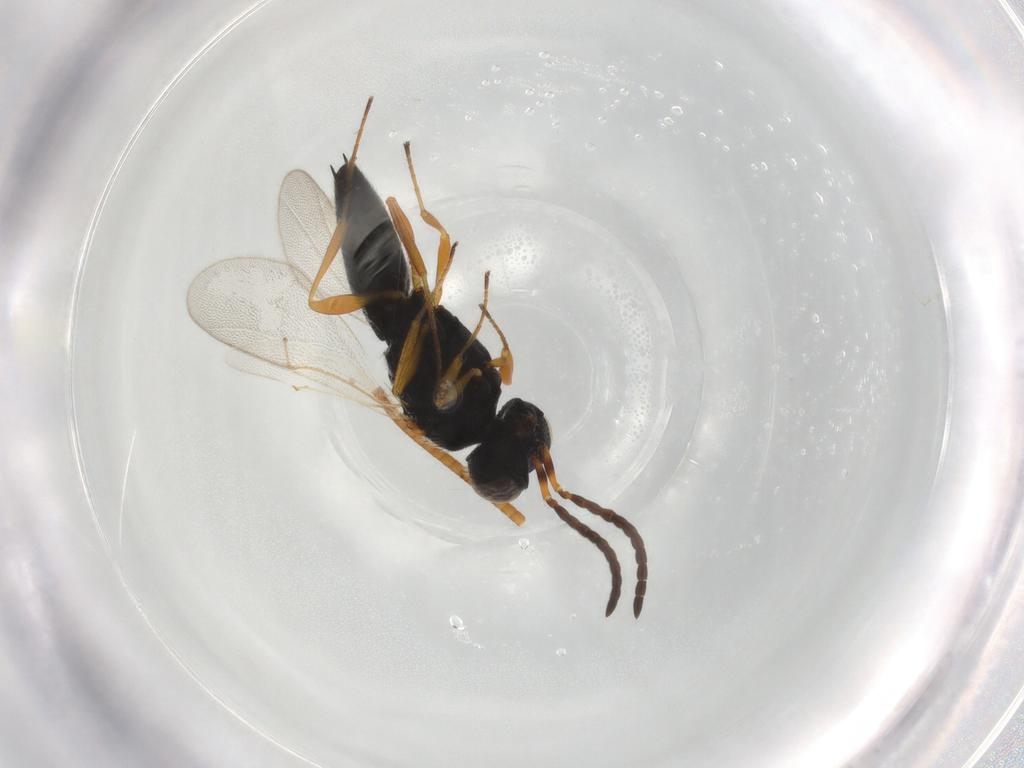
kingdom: Animalia
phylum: Arthropoda
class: Insecta
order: Hymenoptera
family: Scelionidae
